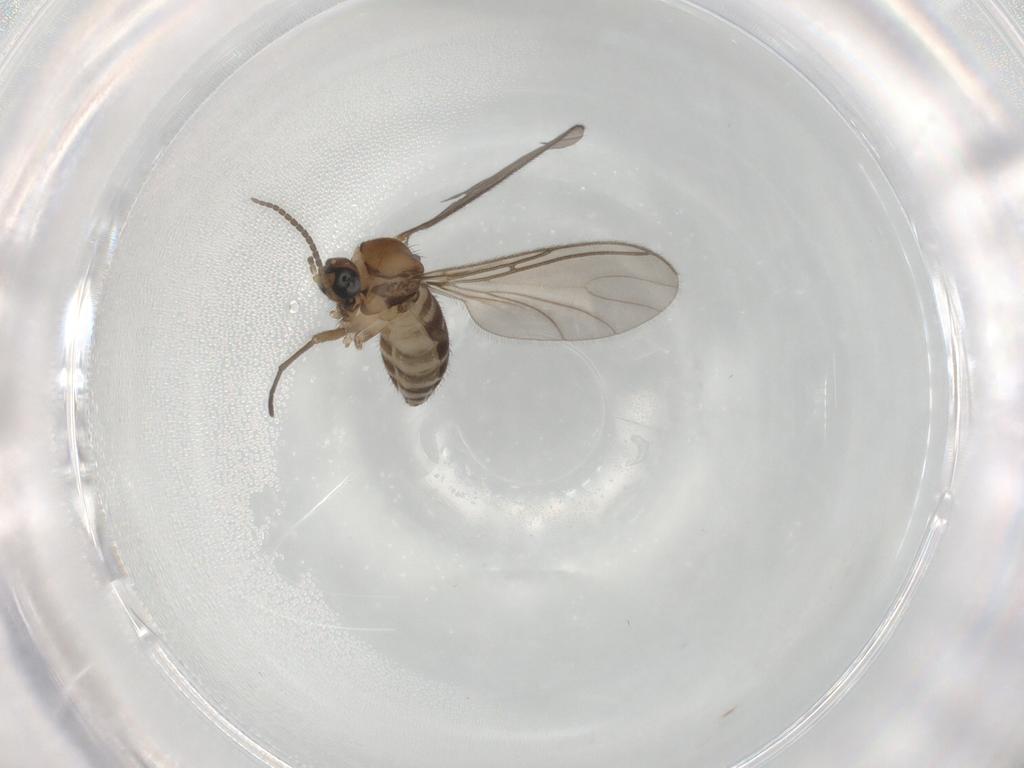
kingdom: Animalia
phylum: Arthropoda
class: Insecta
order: Diptera
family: Sciaridae
